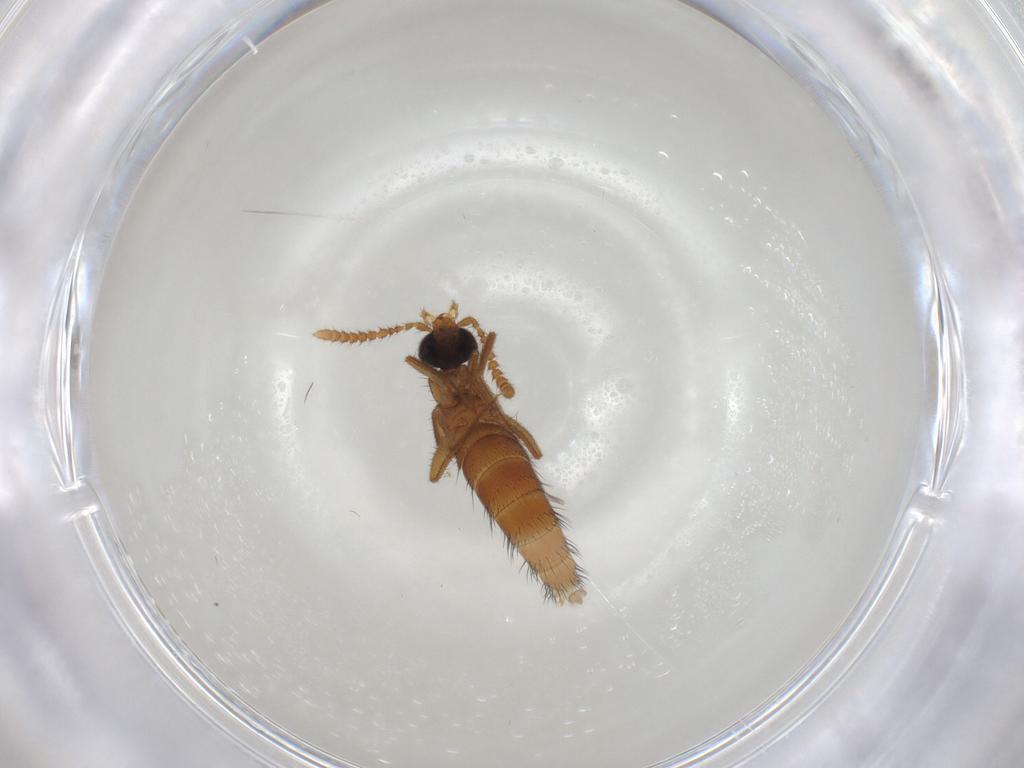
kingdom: Animalia
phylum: Arthropoda
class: Insecta
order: Coleoptera
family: Staphylinidae
